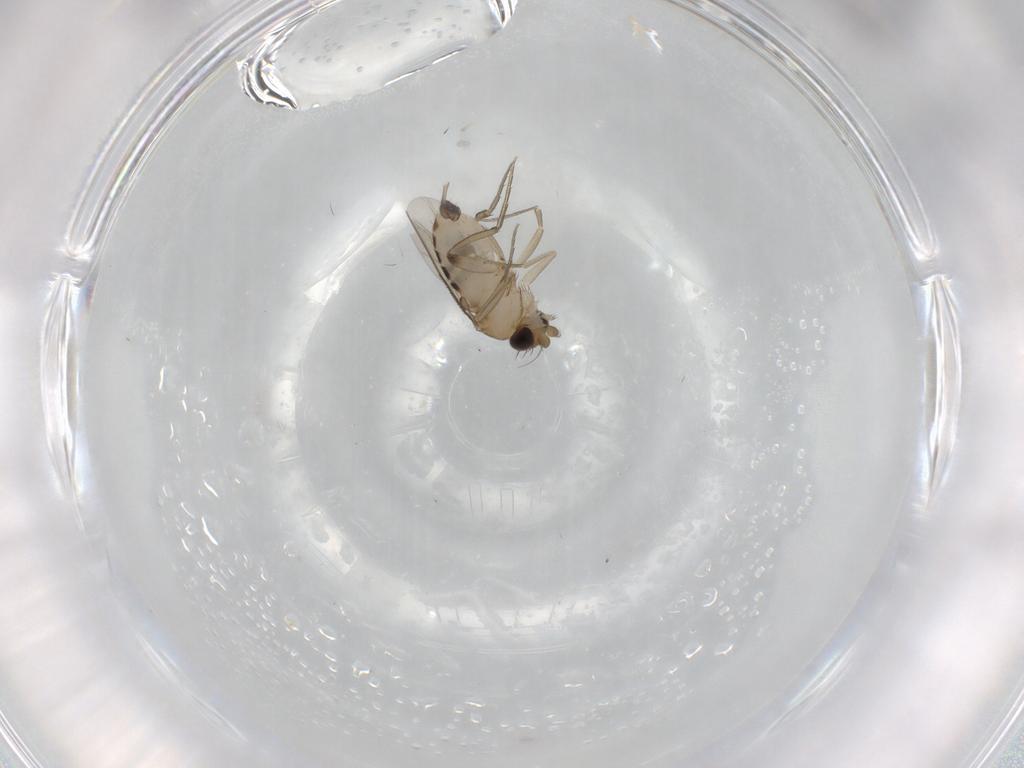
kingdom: Animalia
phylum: Arthropoda
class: Insecta
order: Diptera
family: Phoridae
